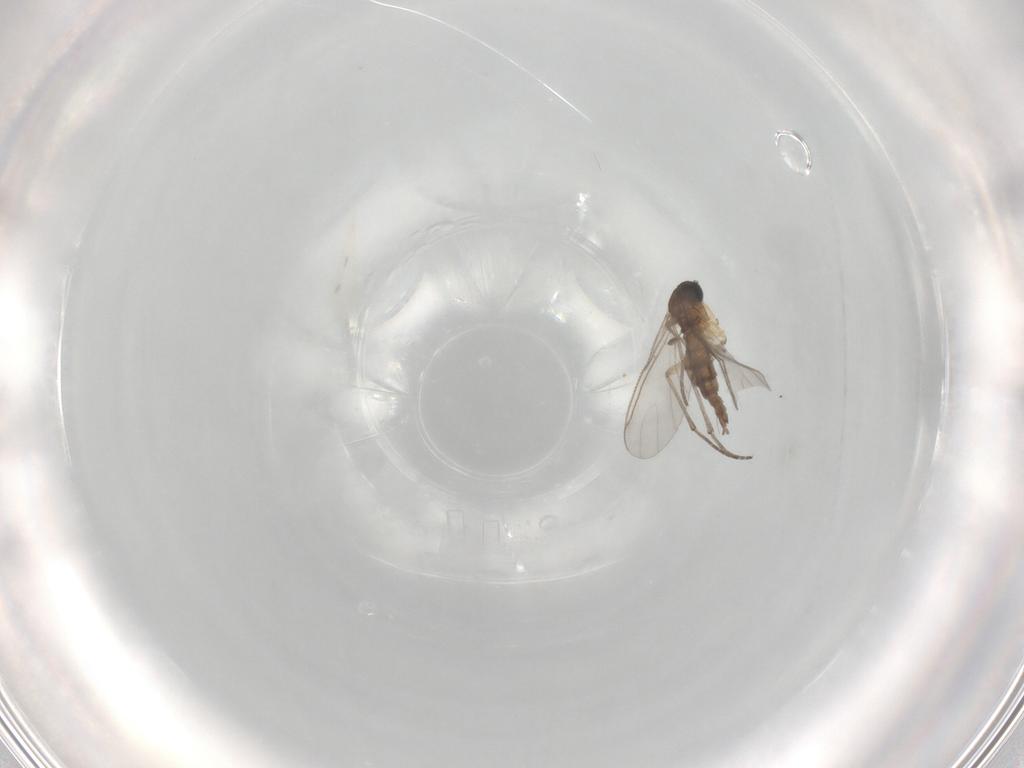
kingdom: Animalia
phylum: Arthropoda
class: Insecta
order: Diptera
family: Sciaridae
